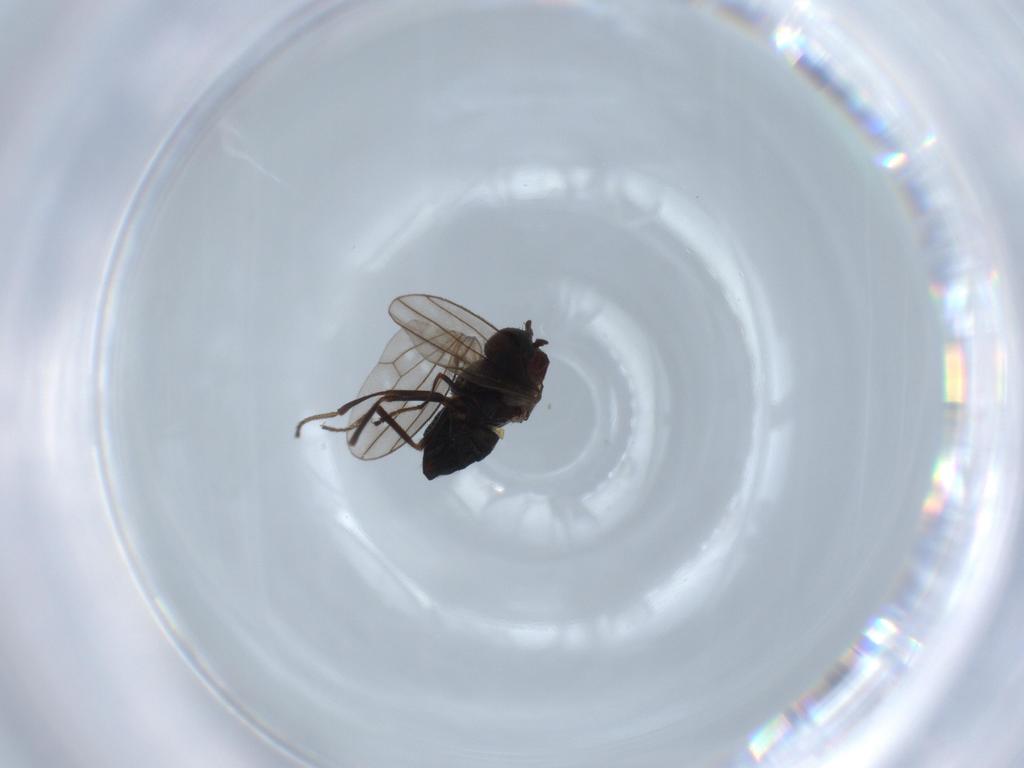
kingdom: Animalia
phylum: Arthropoda
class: Insecta
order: Diptera
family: Ephydridae
